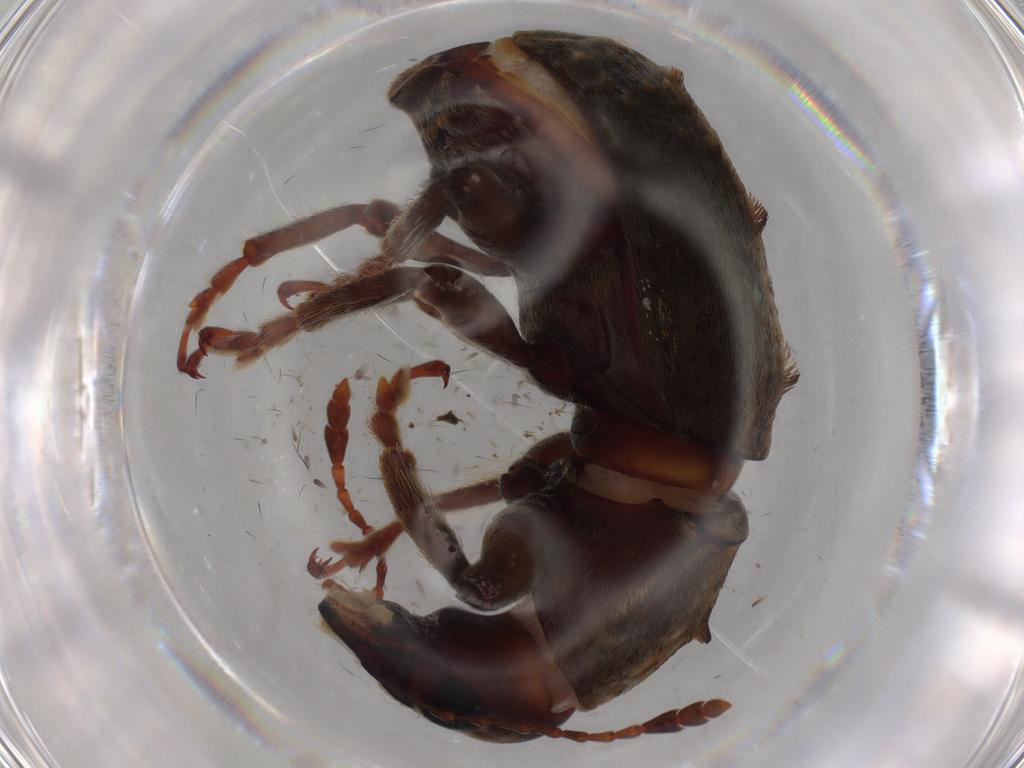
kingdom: Animalia
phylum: Arthropoda
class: Insecta
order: Coleoptera
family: Anthribidae
